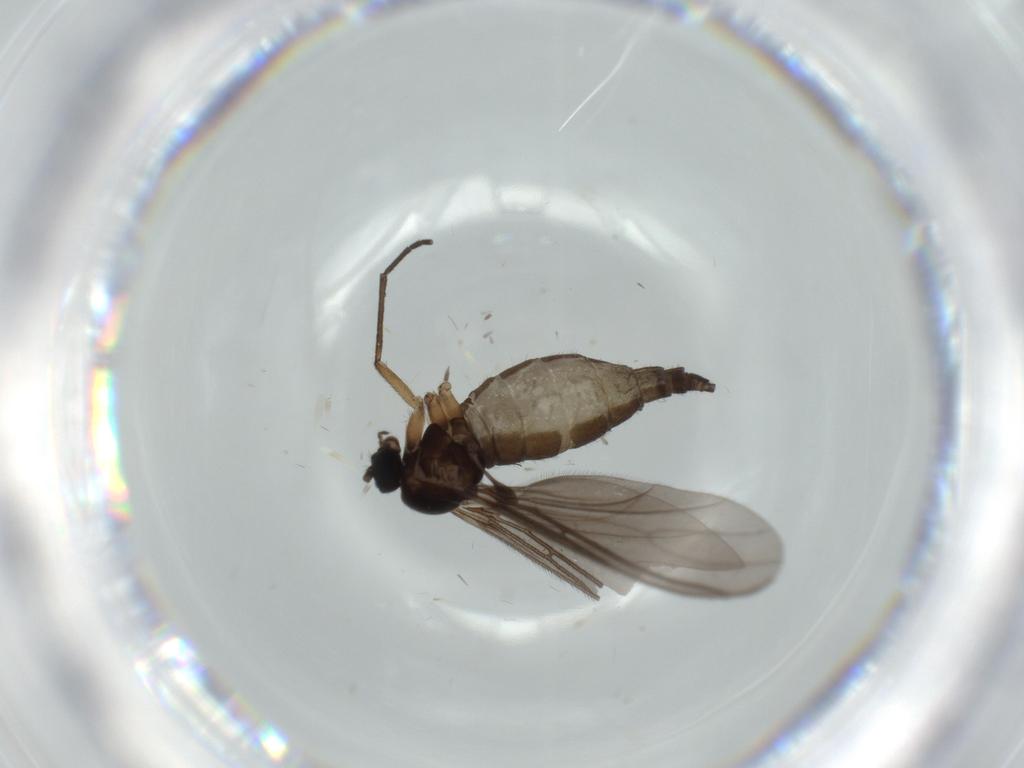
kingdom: Animalia
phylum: Arthropoda
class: Insecta
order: Diptera
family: Sciaridae
